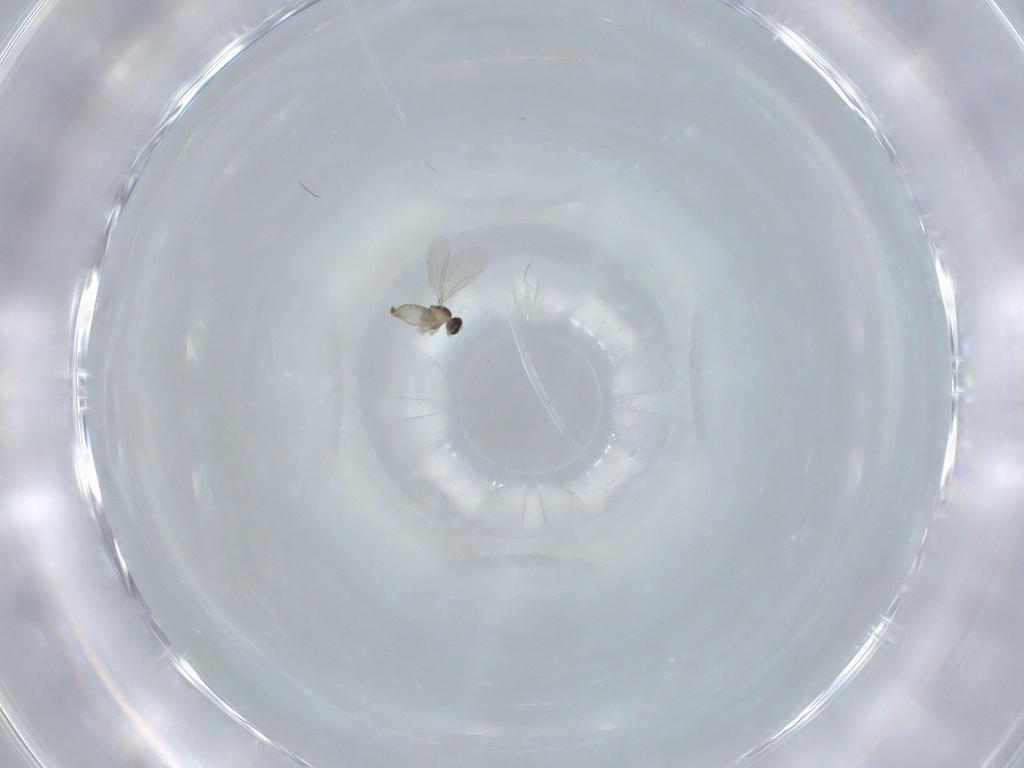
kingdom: Animalia
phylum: Arthropoda
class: Insecta
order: Diptera
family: Cecidomyiidae
